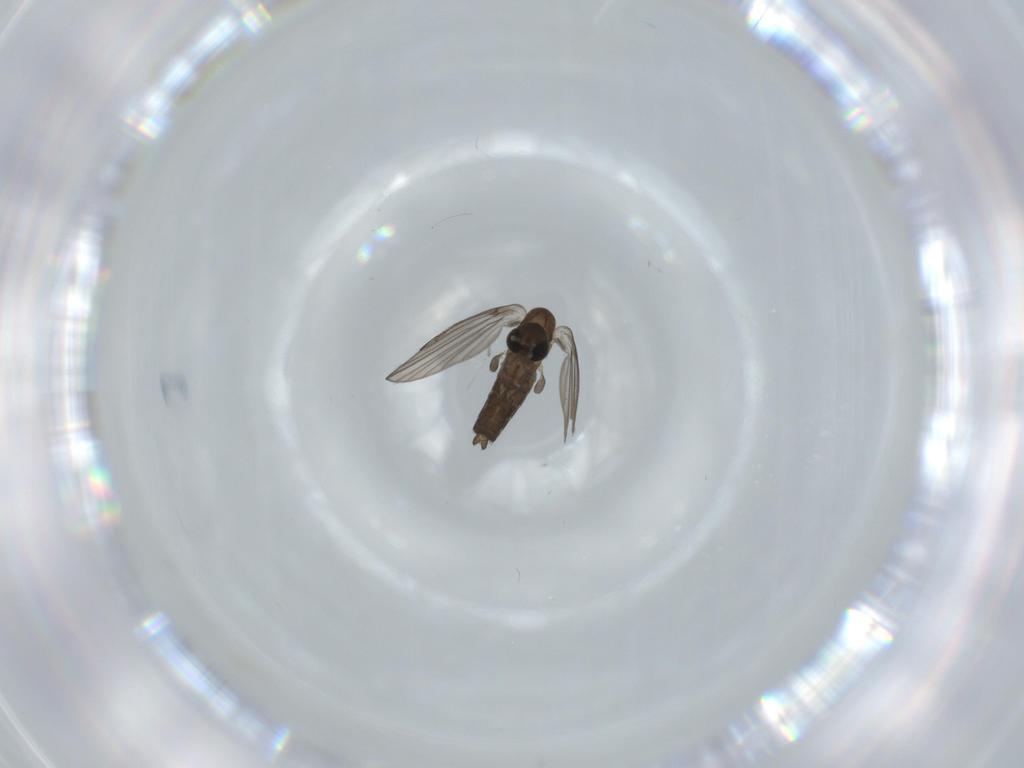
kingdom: Animalia
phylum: Arthropoda
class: Insecta
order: Diptera
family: Psychodidae
